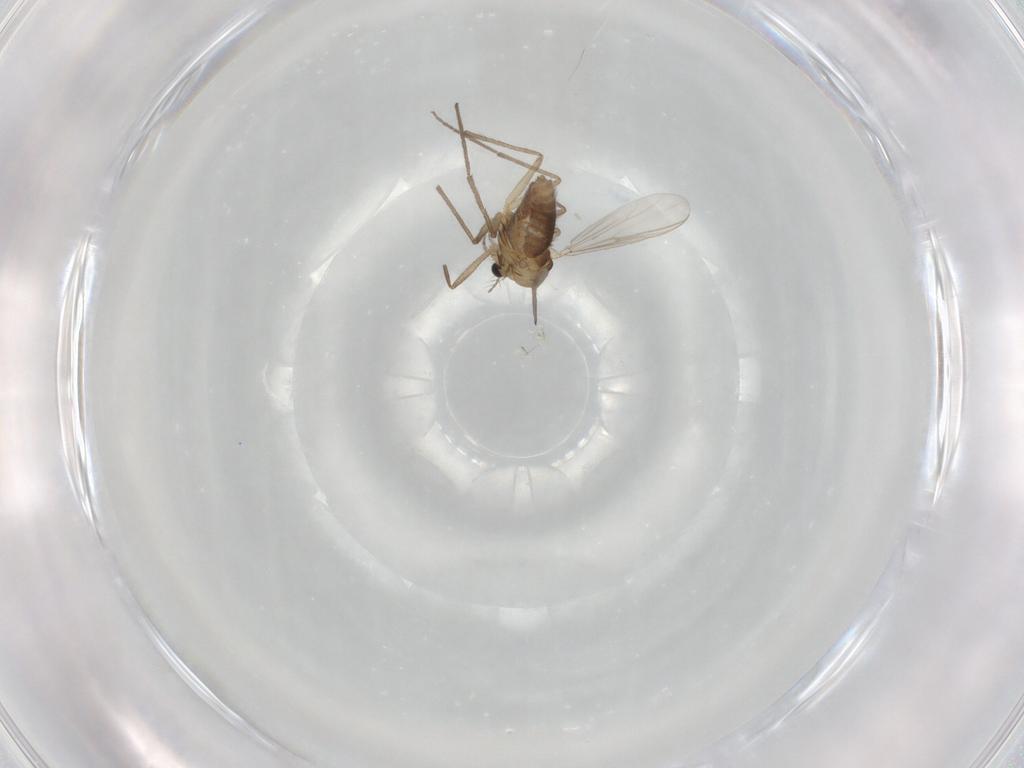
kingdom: Animalia
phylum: Arthropoda
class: Insecta
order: Diptera
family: Chironomidae
